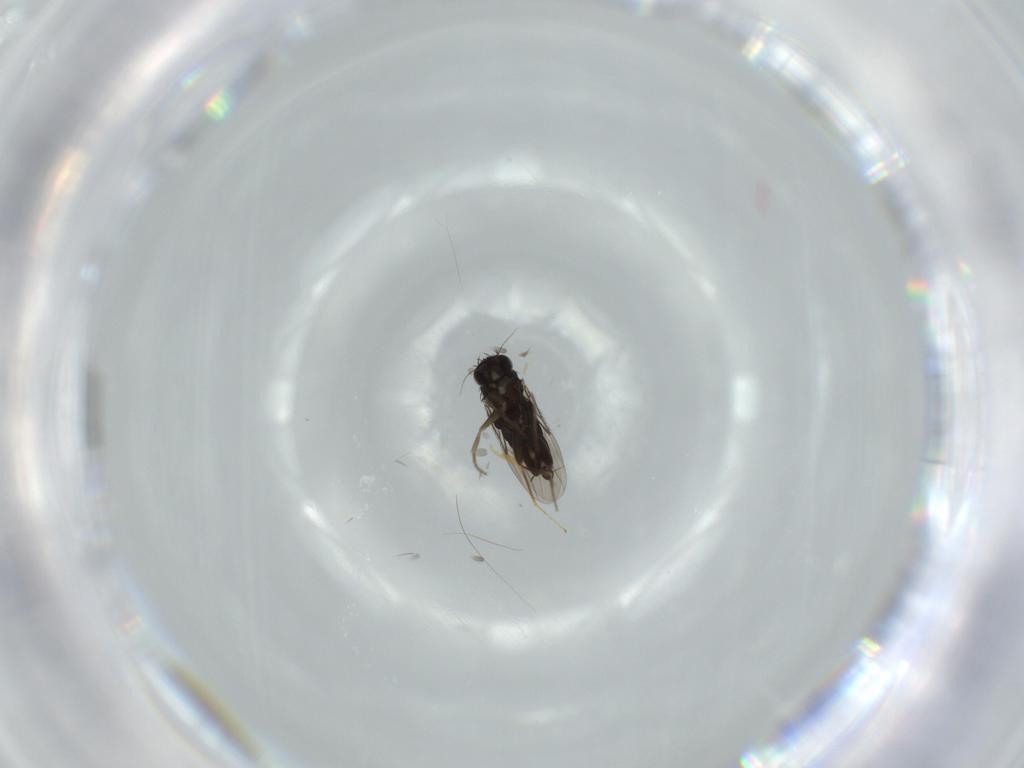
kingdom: Animalia
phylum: Arthropoda
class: Insecta
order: Diptera
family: Phoridae
